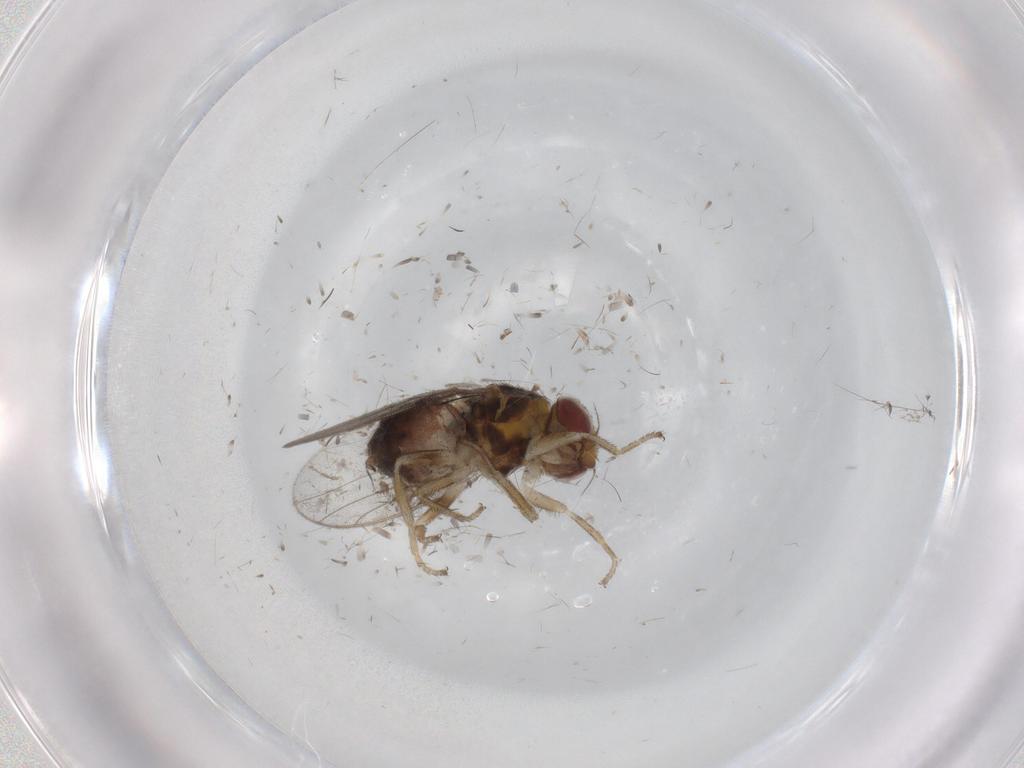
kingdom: Animalia
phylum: Arthropoda
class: Insecta
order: Diptera
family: Chloropidae
